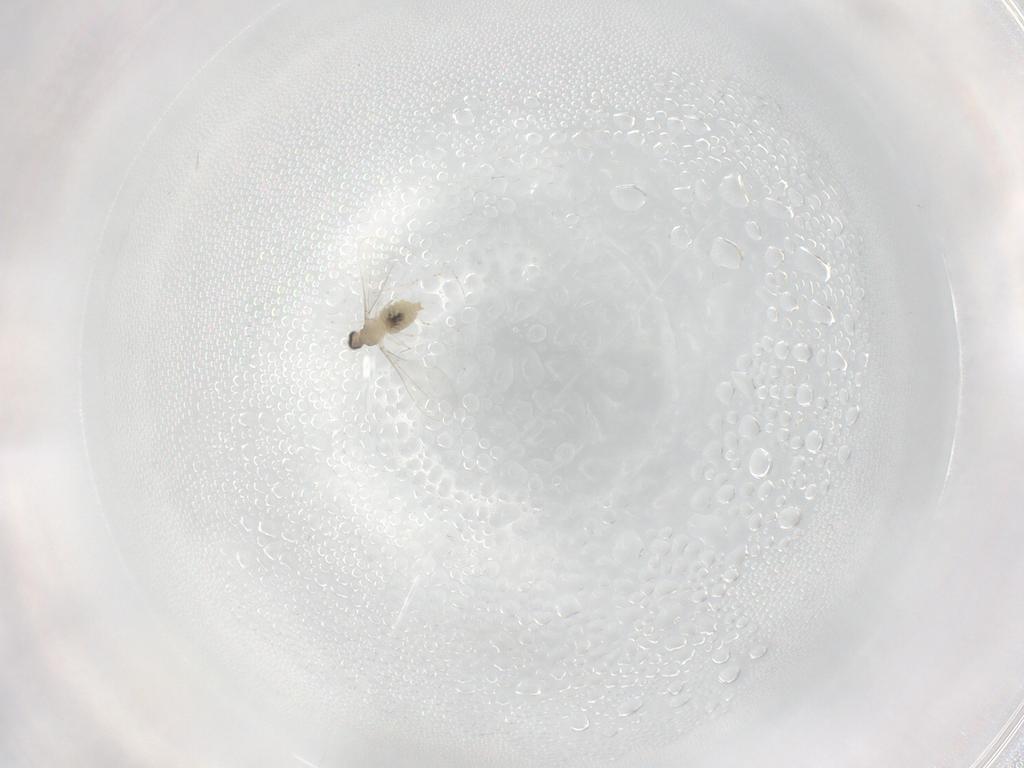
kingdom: Animalia
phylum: Arthropoda
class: Insecta
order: Diptera
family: Cecidomyiidae
